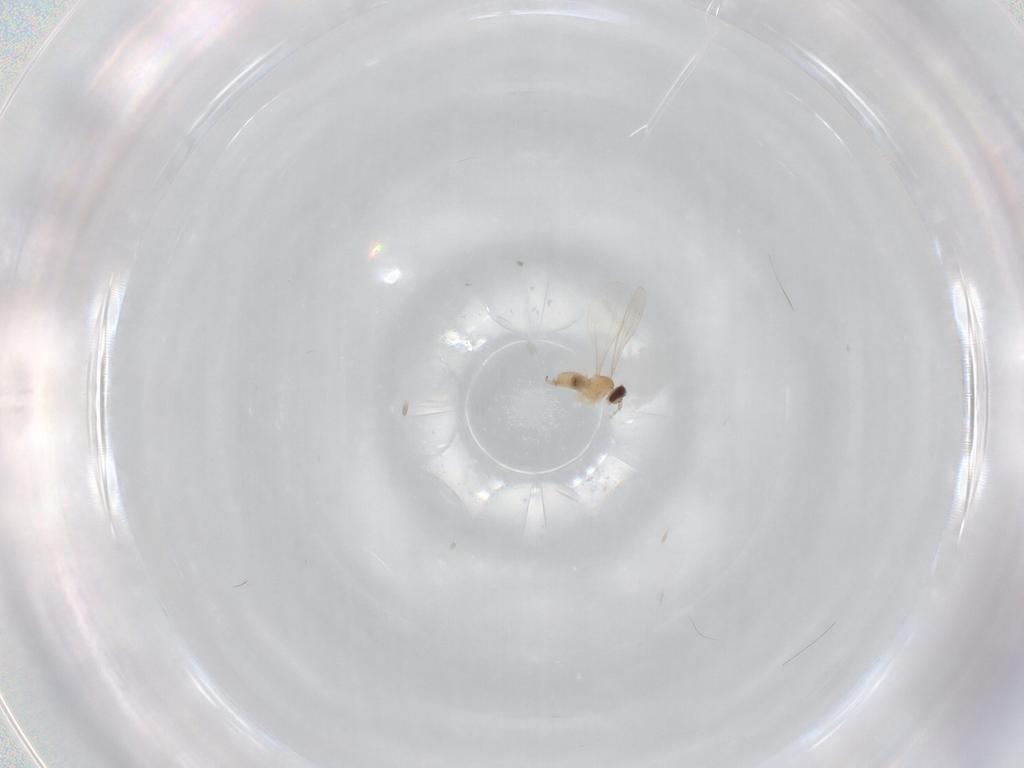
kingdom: Animalia
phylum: Arthropoda
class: Insecta
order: Diptera
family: Cecidomyiidae
